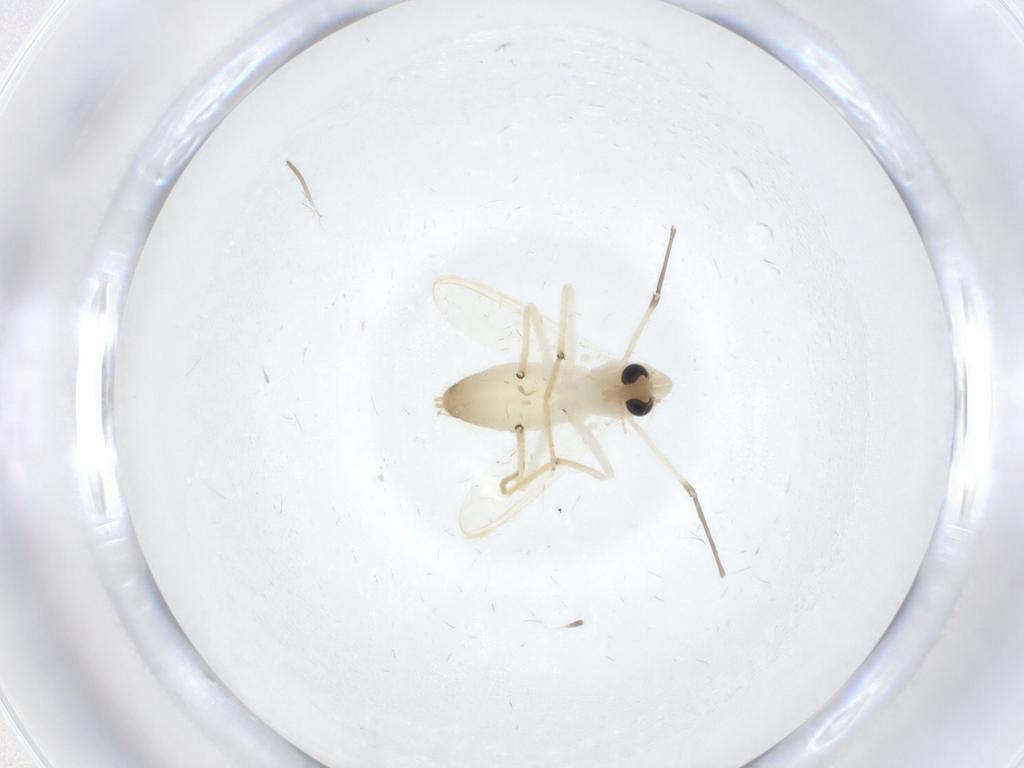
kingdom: Animalia
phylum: Arthropoda
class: Insecta
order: Diptera
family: Chironomidae
